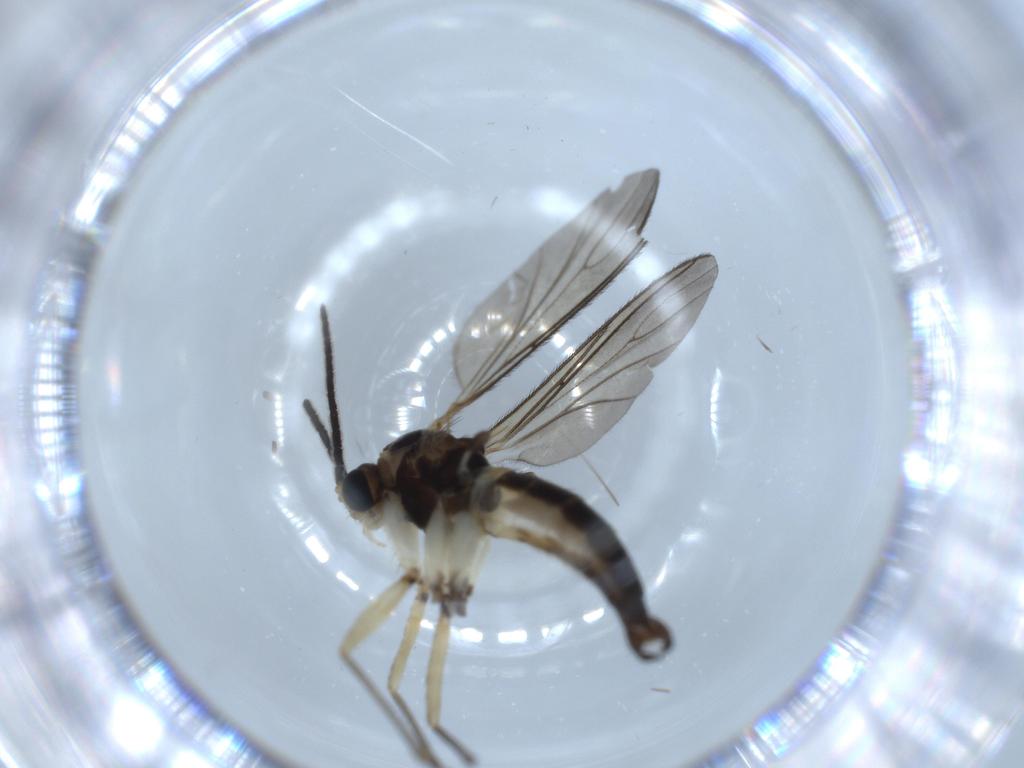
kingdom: Animalia
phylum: Arthropoda
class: Insecta
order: Diptera
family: Sciaridae
